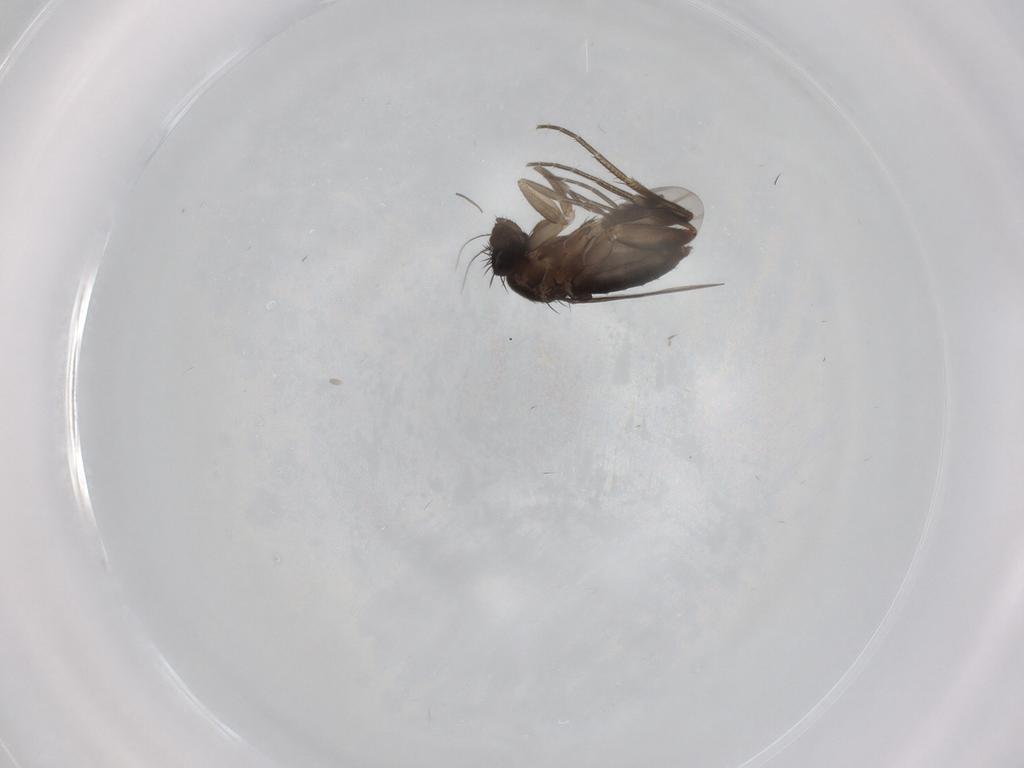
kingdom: Animalia
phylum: Arthropoda
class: Insecta
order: Diptera
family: Phoridae
